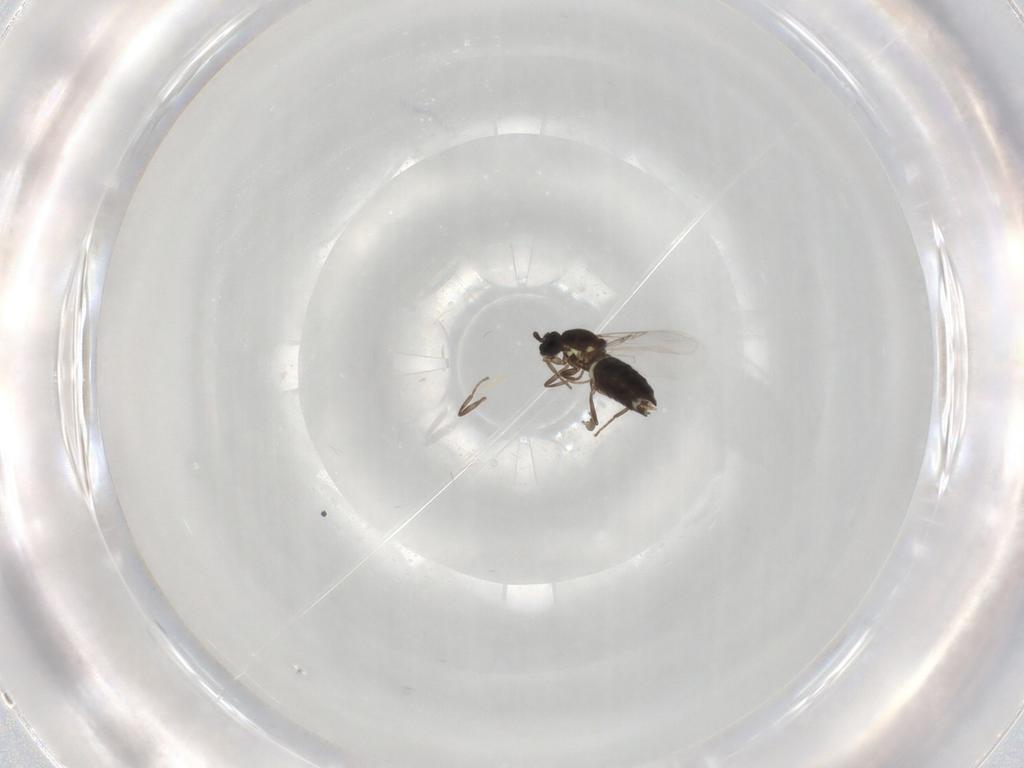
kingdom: Animalia
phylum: Arthropoda
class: Insecta
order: Diptera
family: Scatopsidae
